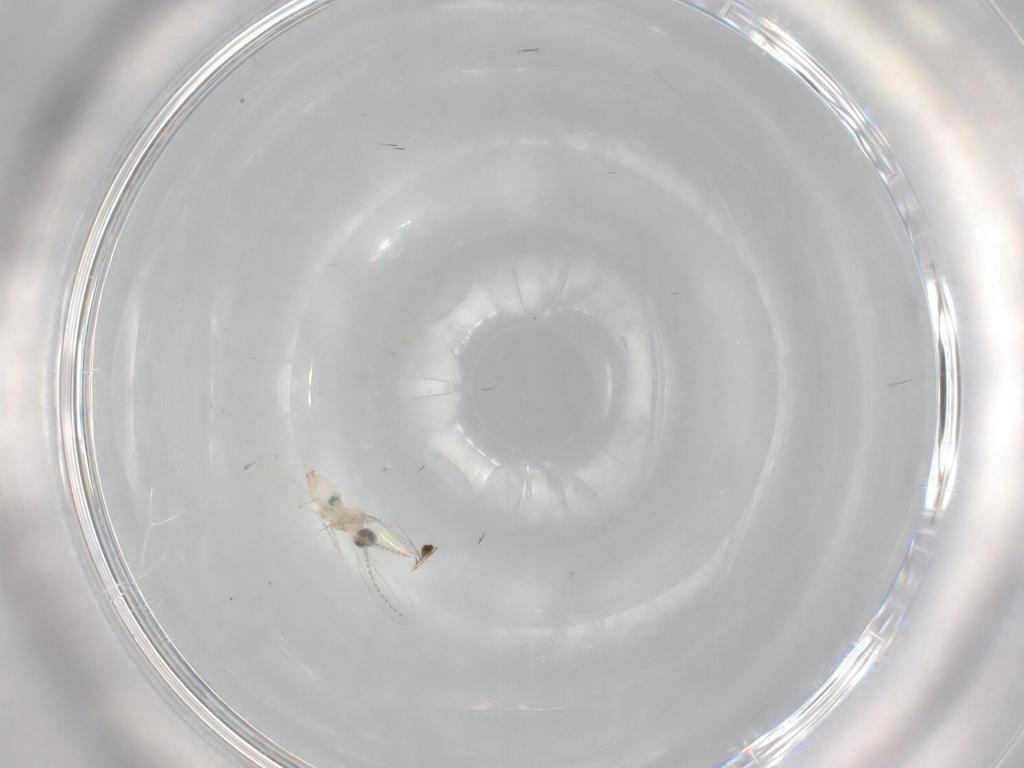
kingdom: Animalia
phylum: Arthropoda
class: Insecta
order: Diptera
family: Cecidomyiidae
